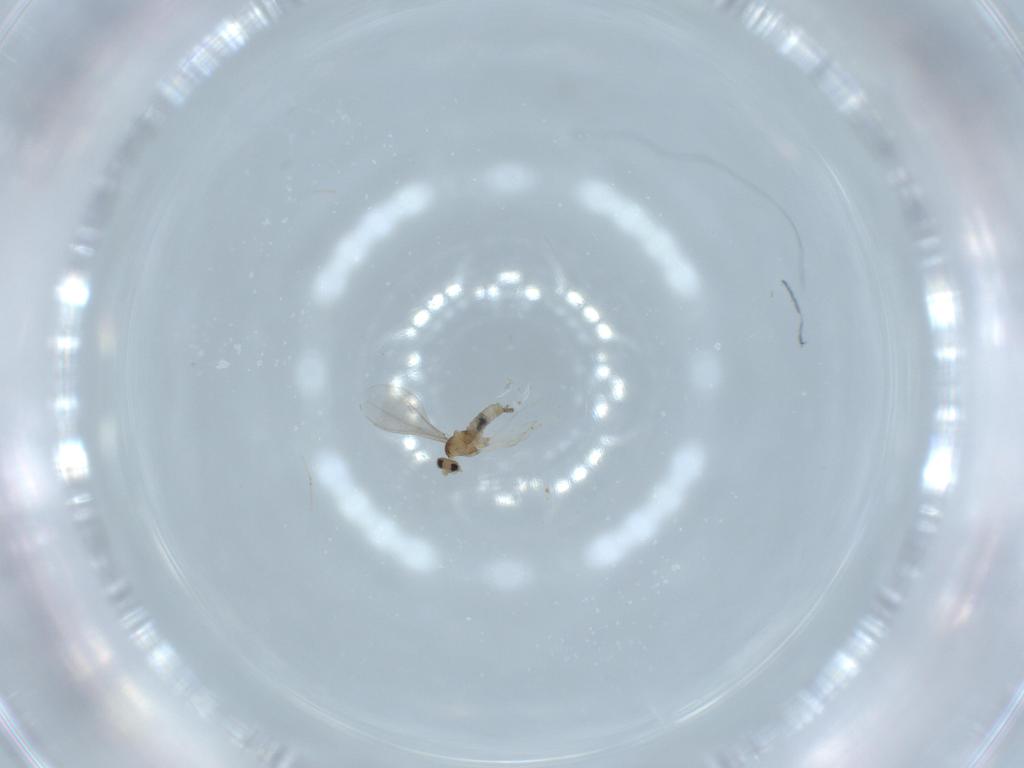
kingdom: Animalia
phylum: Arthropoda
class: Insecta
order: Diptera
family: Cecidomyiidae
